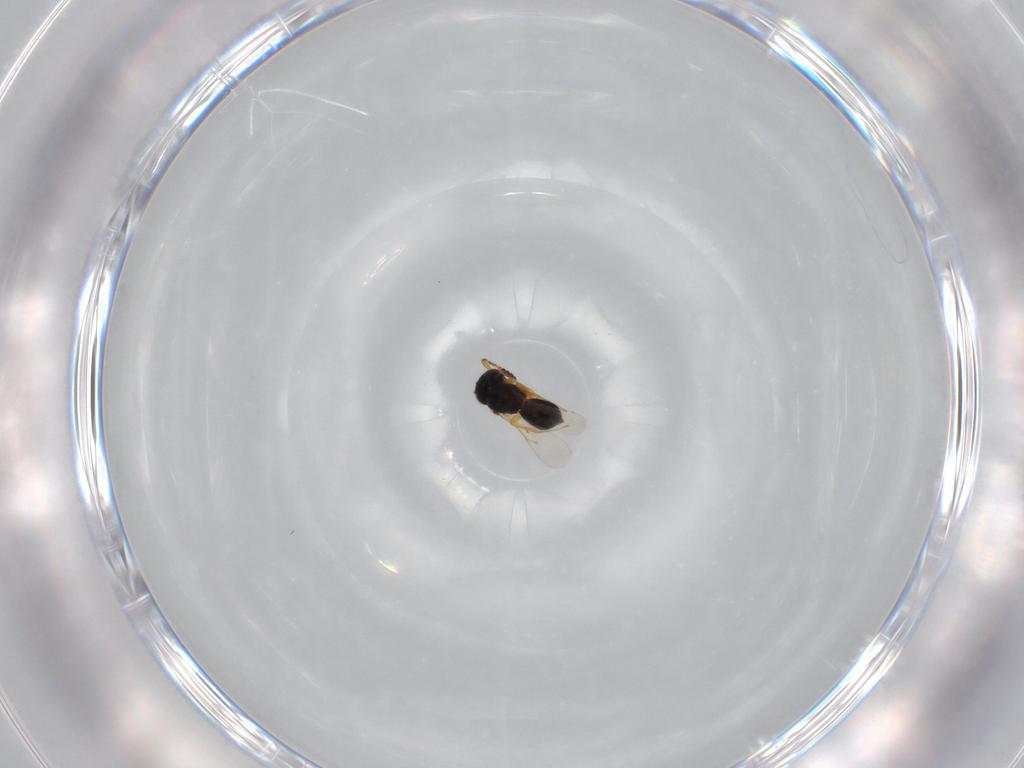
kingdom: Animalia
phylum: Arthropoda
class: Insecta
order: Hymenoptera
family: Scelionidae
